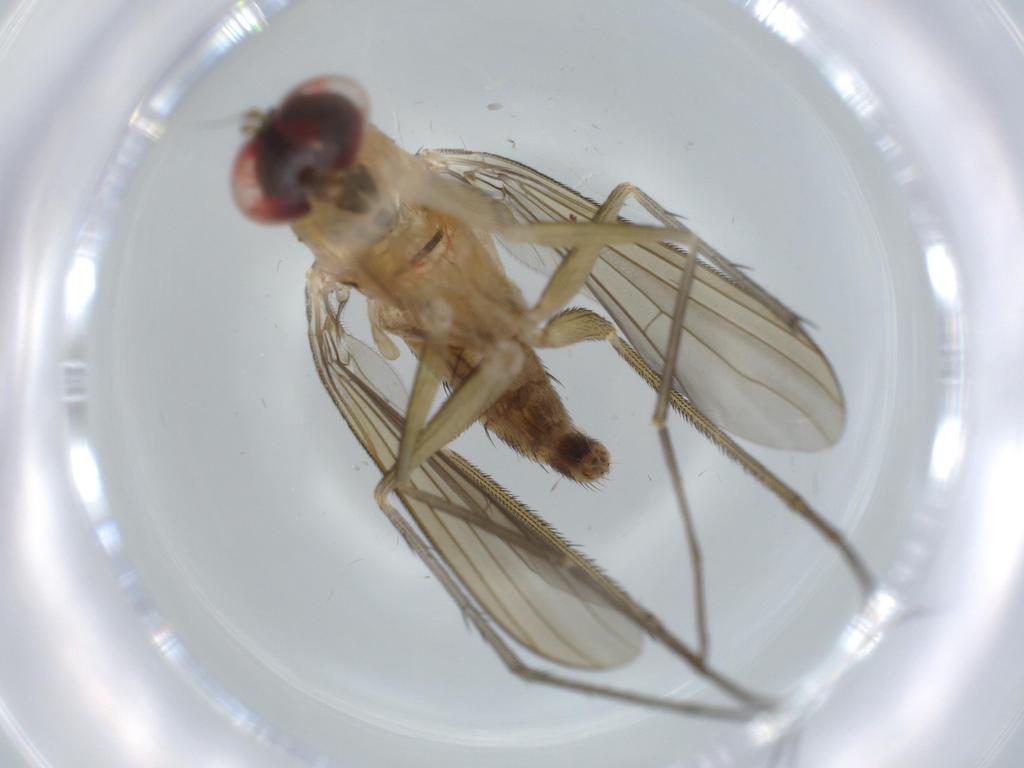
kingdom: Animalia
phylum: Arthropoda
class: Insecta
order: Diptera
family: Dolichopodidae
